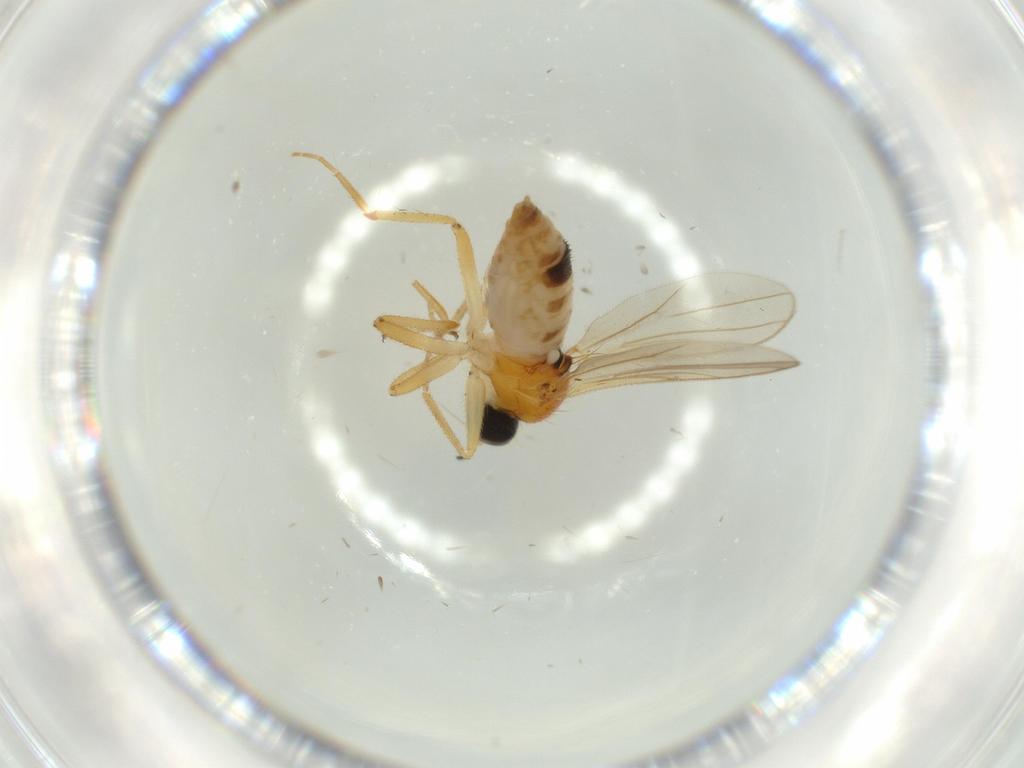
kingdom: Animalia
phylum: Arthropoda
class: Insecta
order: Diptera
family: Hybotidae
